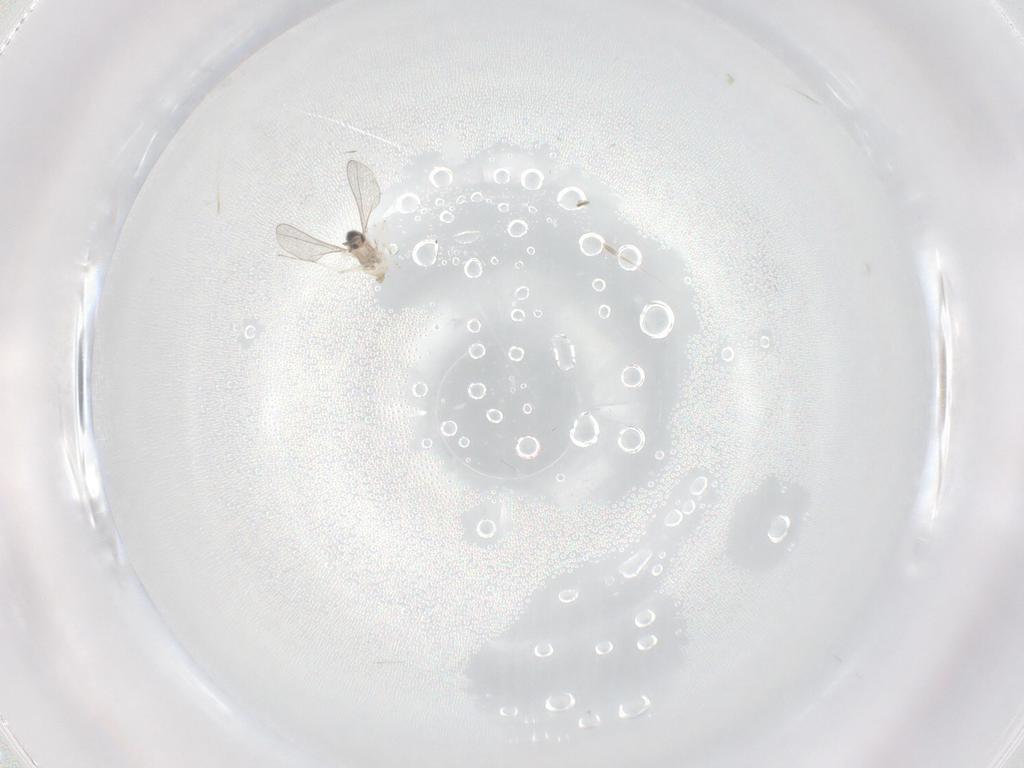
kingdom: Animalia
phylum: Arthropoda
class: Insecta
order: Diptera
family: Cecidomyiidae
